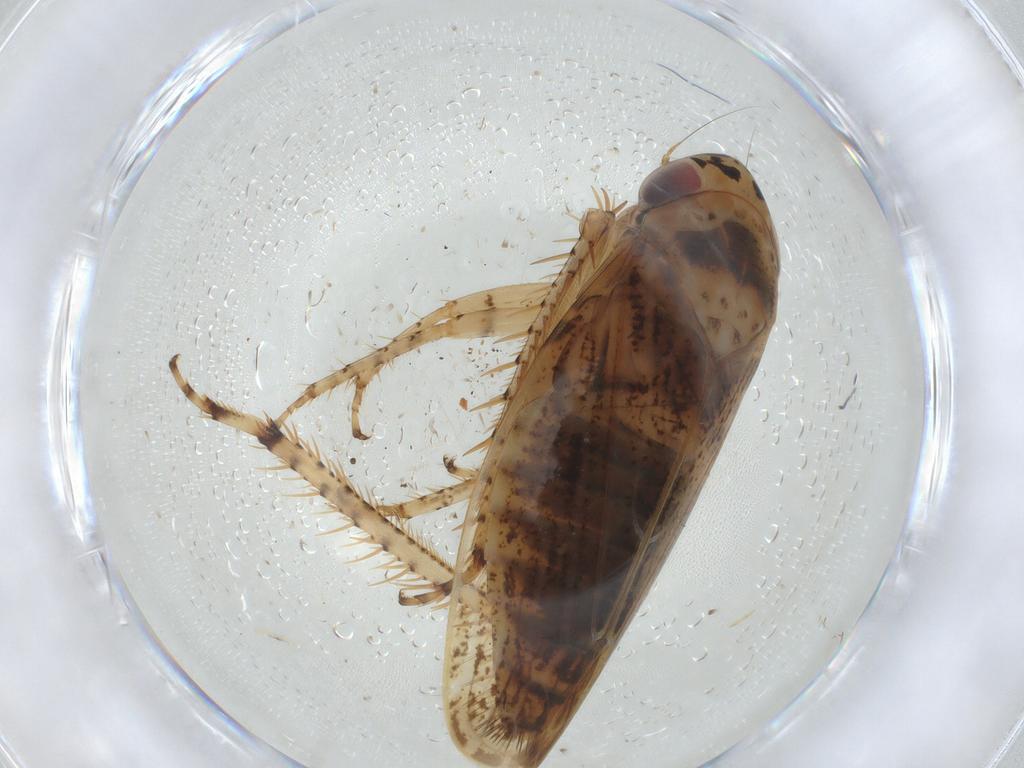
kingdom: Animalia
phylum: Arthropoda
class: Insecta
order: Hemiptera
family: Cicadellidae
